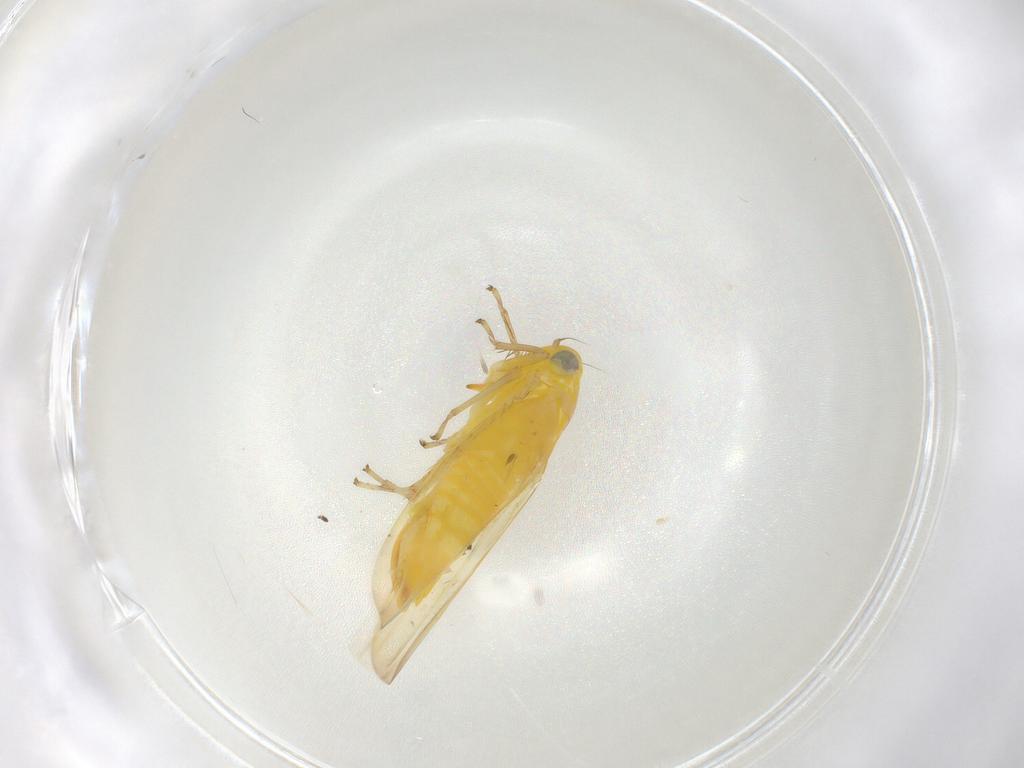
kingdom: Animalia
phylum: Arthropoda
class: Insecta
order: Hemiptera
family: Cicadellidae
